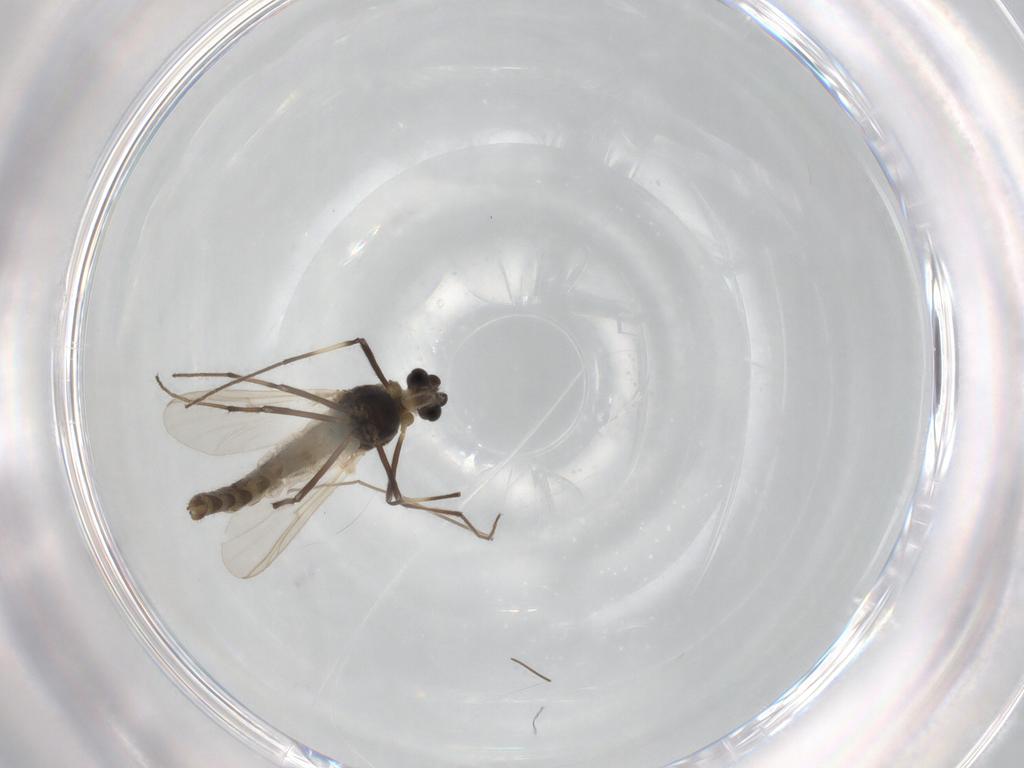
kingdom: Animalia
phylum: Arthropoda
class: Insecta
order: Diptera
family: Chironomidae
